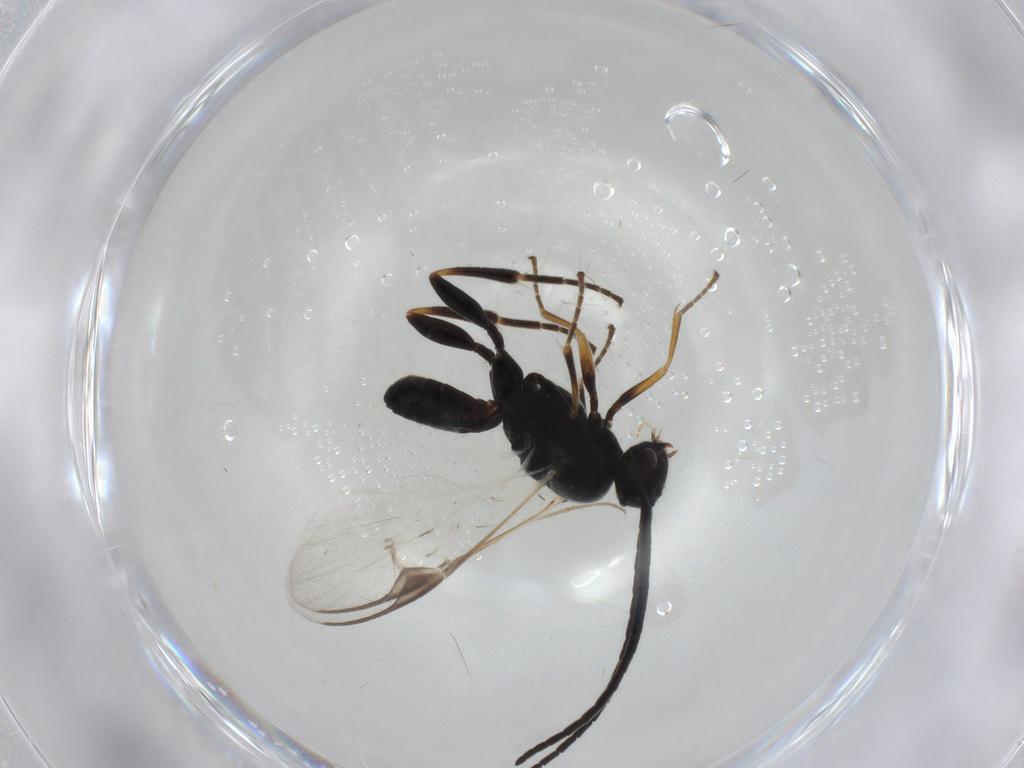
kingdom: Animalia
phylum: Arthropoda
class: Insecta
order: Hymenoptera
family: Braconidae
